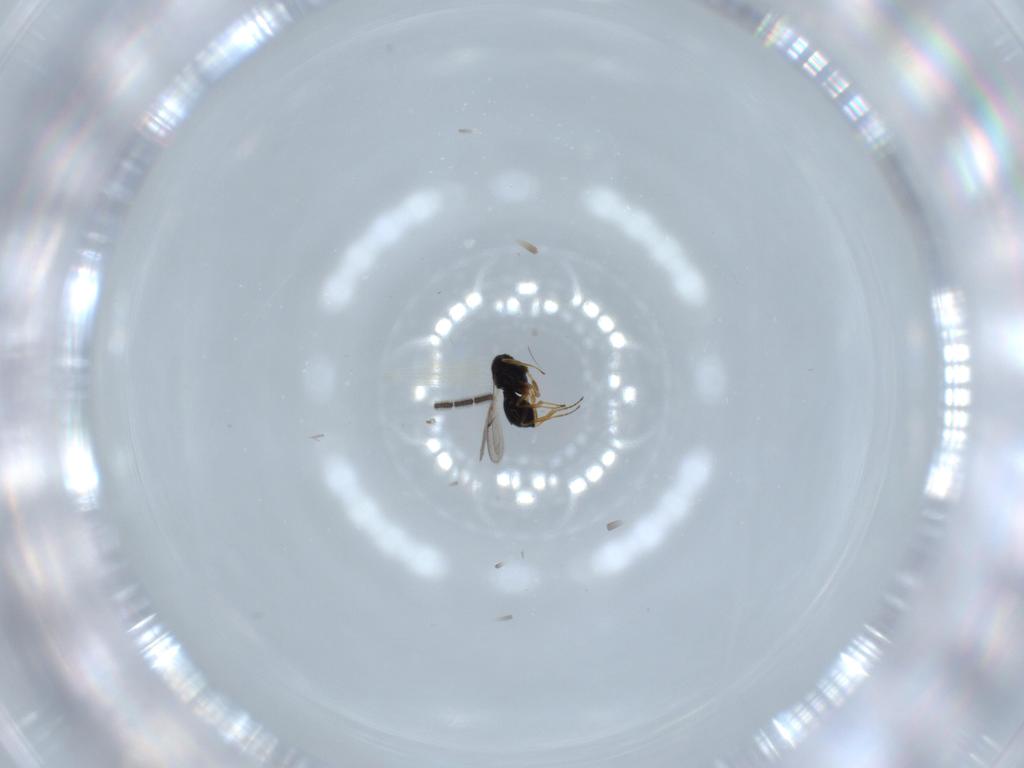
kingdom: Animalia
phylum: Arthropoda
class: Insecta
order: Hymenoptera
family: Scelionidae
